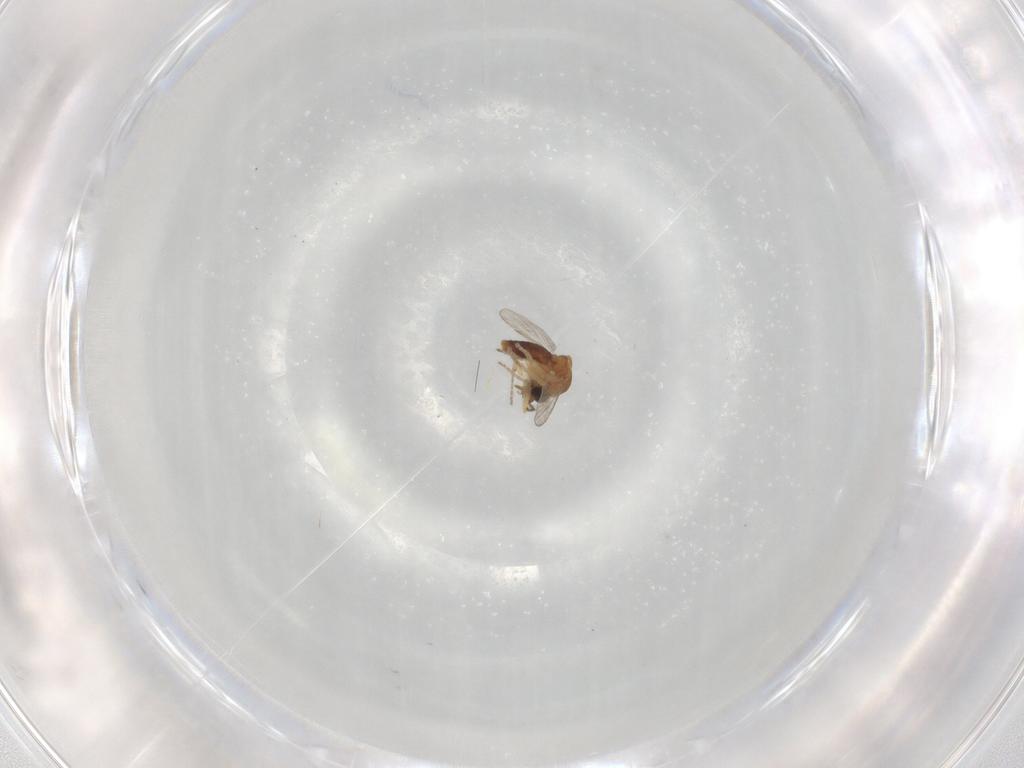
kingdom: Animalia
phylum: Arthropoda
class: Insecta
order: Diptera
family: Ceratopogonidae
